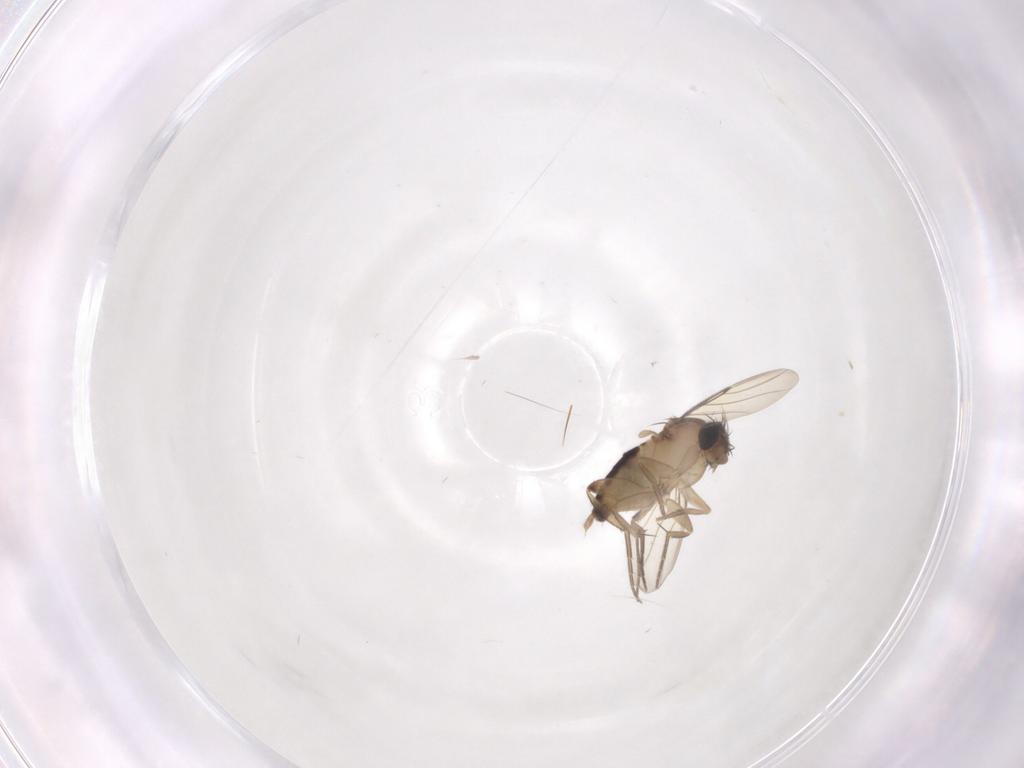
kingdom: Animalia
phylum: Arthropoda
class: Insecta
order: Diptera
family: Phoridae
